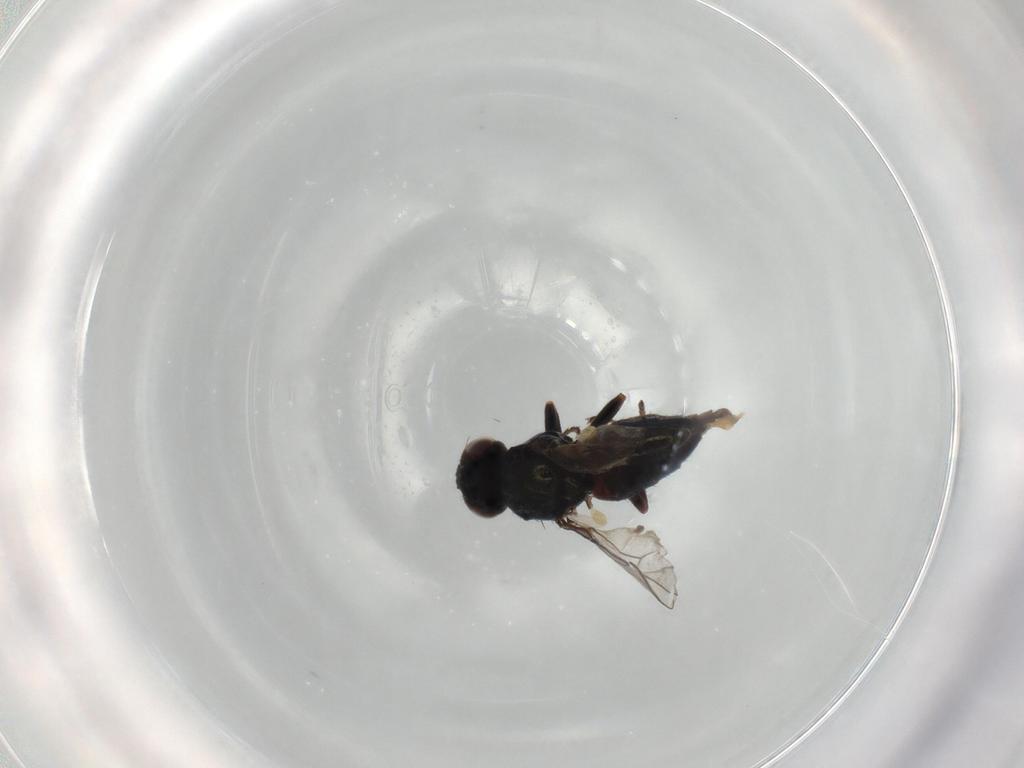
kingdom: Animalia
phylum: Arthropoda
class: Insecta
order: Diptera
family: Chloropidae
